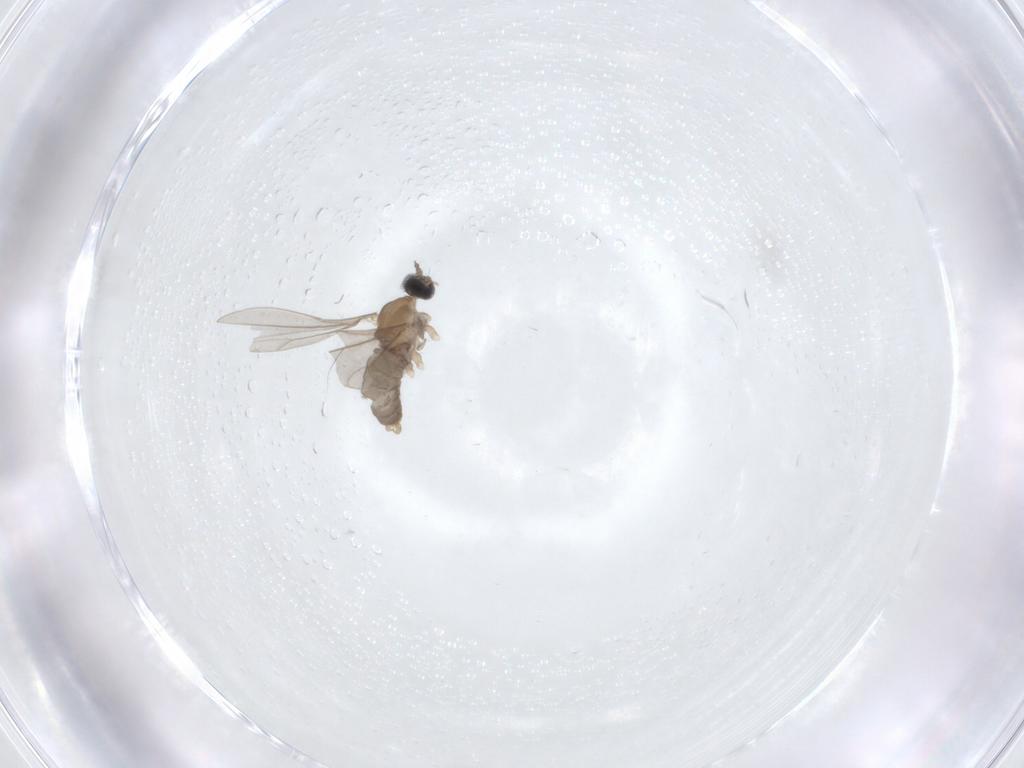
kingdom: Animalia
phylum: Arthropoda
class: Insecta
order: Diptera
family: Cecidomyiidae
